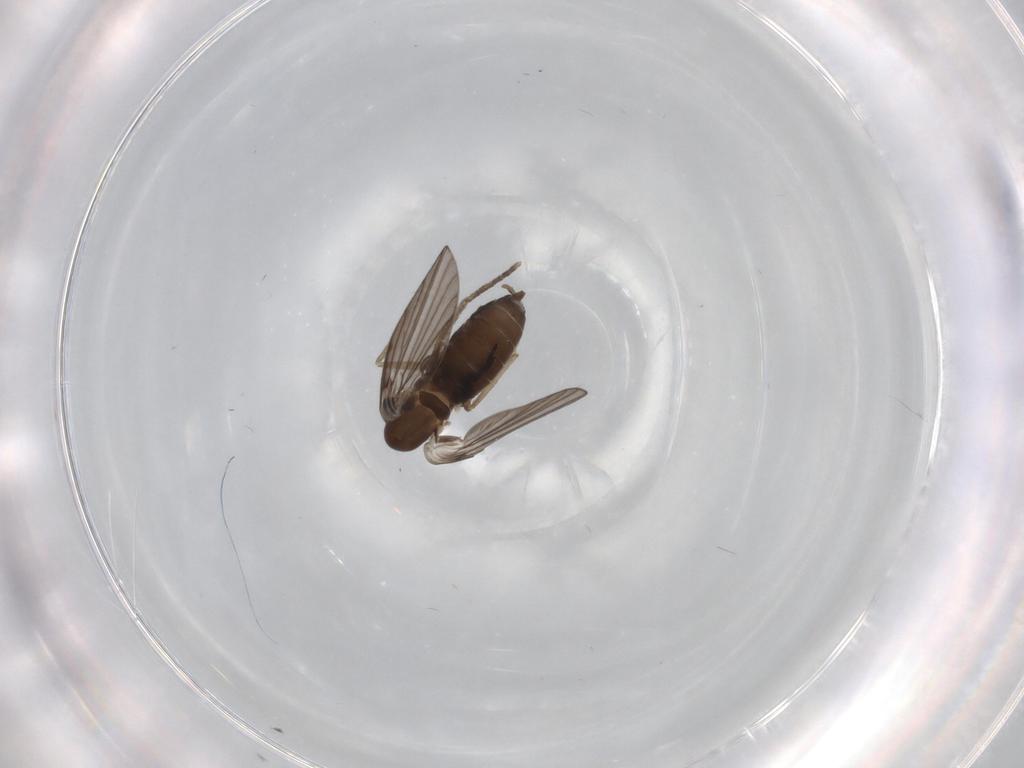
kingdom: Animalia
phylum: Arthropoda
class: Insecta
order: Diptera
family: Psychodidae
